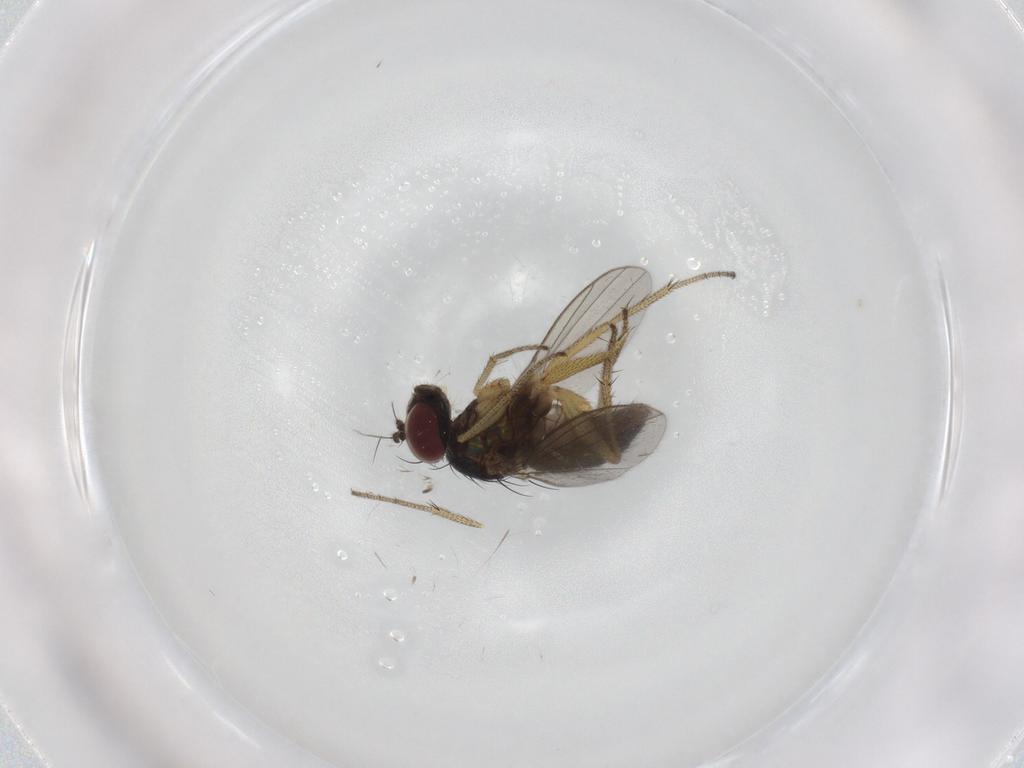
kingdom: Animalia
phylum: Arthropoda
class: Insecta
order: Diptera
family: Dolichopodidae
